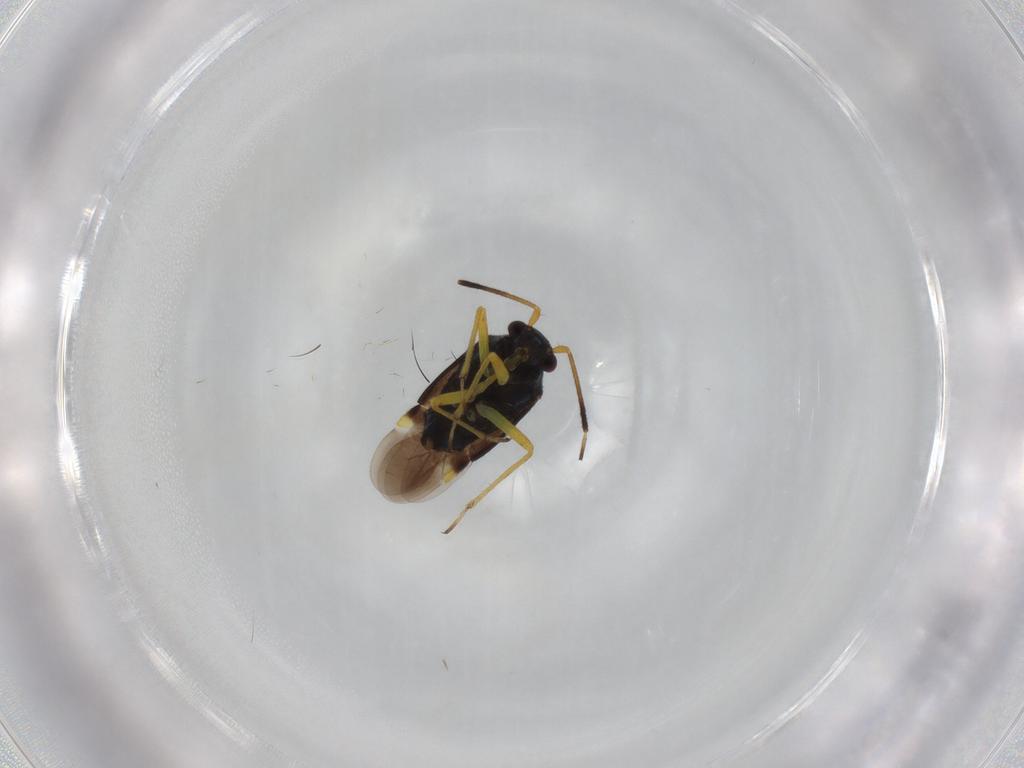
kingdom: Animalia
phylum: Arthropoda
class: Insecta
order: Hemiptera
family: Miridae
